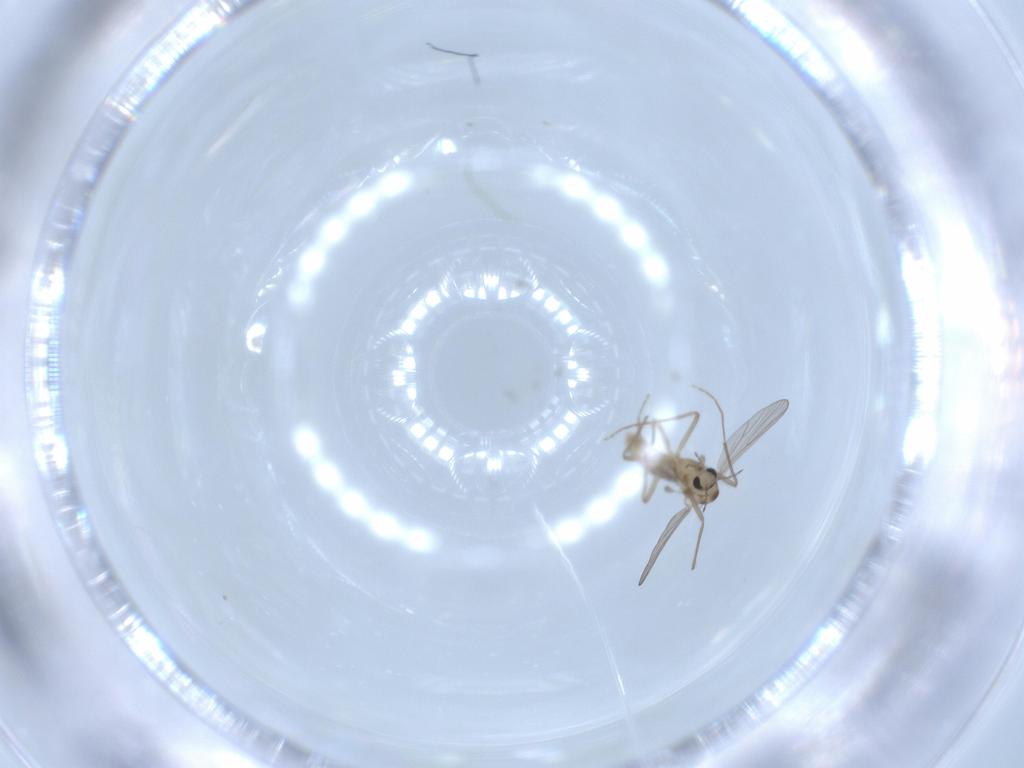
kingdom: Animalia
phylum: Arthropoda
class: Insecta
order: Diptera
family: Chironomidae
